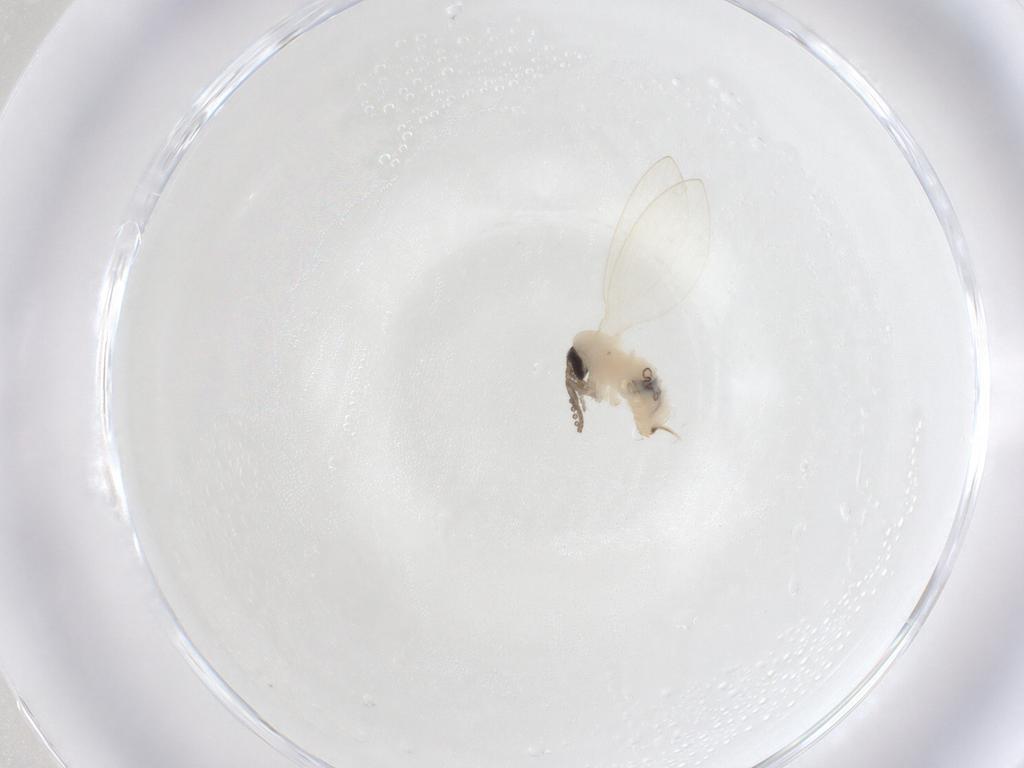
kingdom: Animalia
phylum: Arthropoda
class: Insecta
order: Diptera
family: Psychodidae
